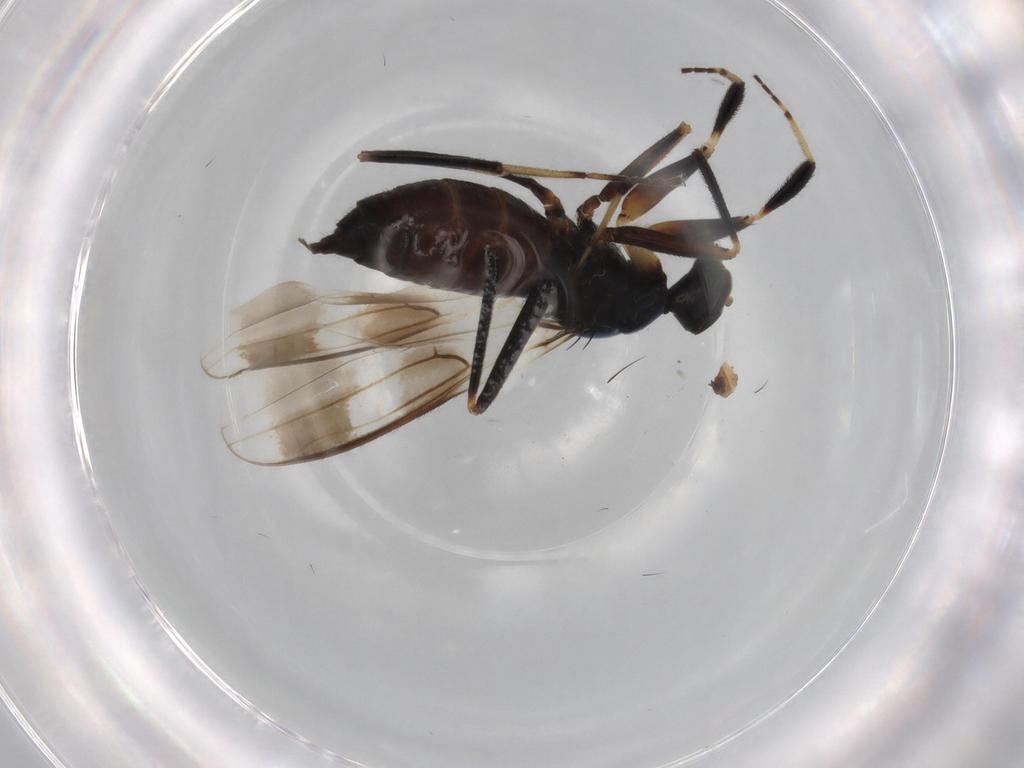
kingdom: Animalia
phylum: Arthropoda
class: Insecta
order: Diptera
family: Hybotidae
